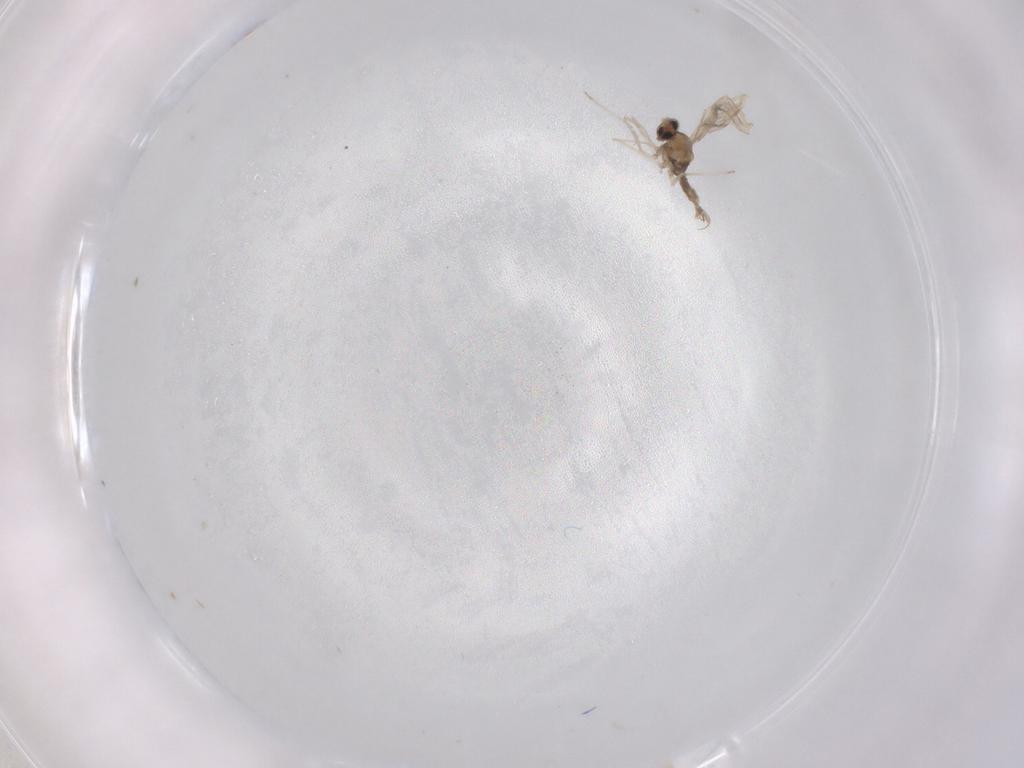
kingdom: Animalia
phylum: Arthropoda
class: Insecta
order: Diptera
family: Cecidomyiidae
